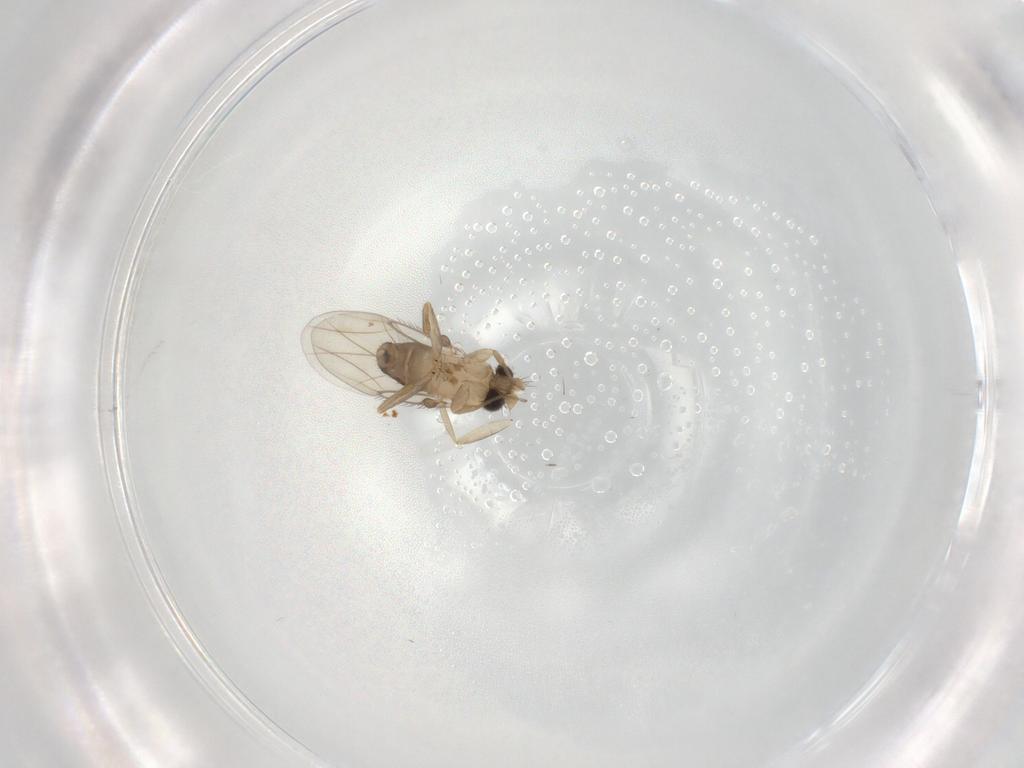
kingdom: Animalia
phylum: Arthropoda
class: Insecta
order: Diptera
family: Cecidomyiidae
